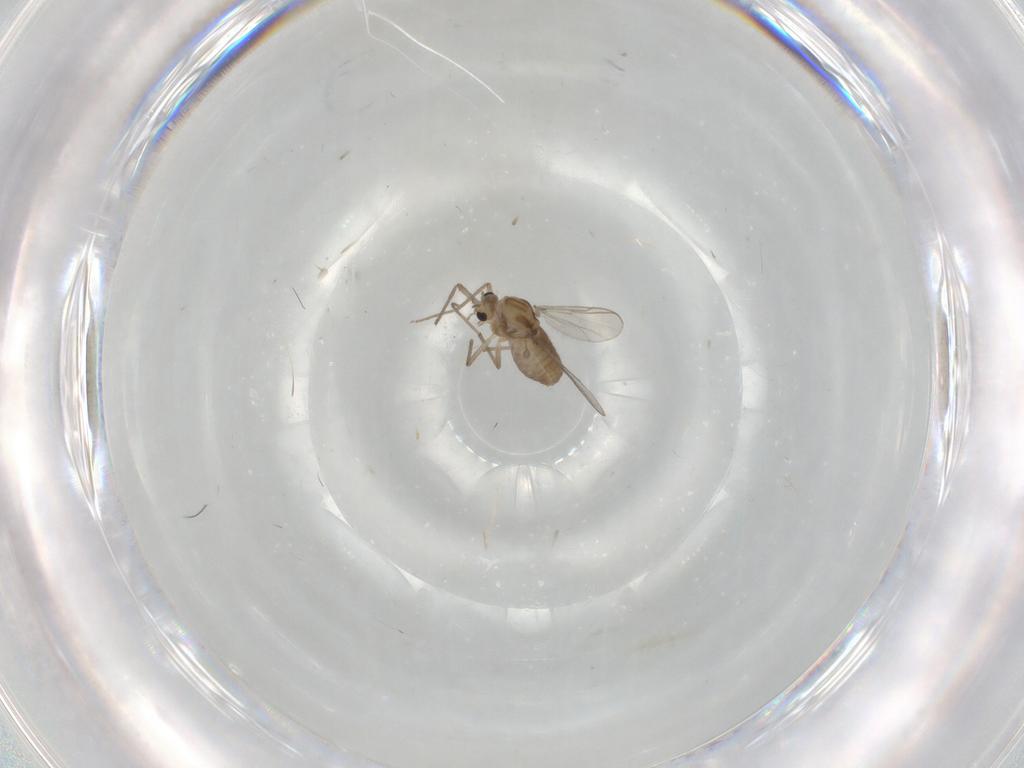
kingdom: Animalia
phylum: Arthropoda
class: Insecta
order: Diptera
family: Chironomidae
